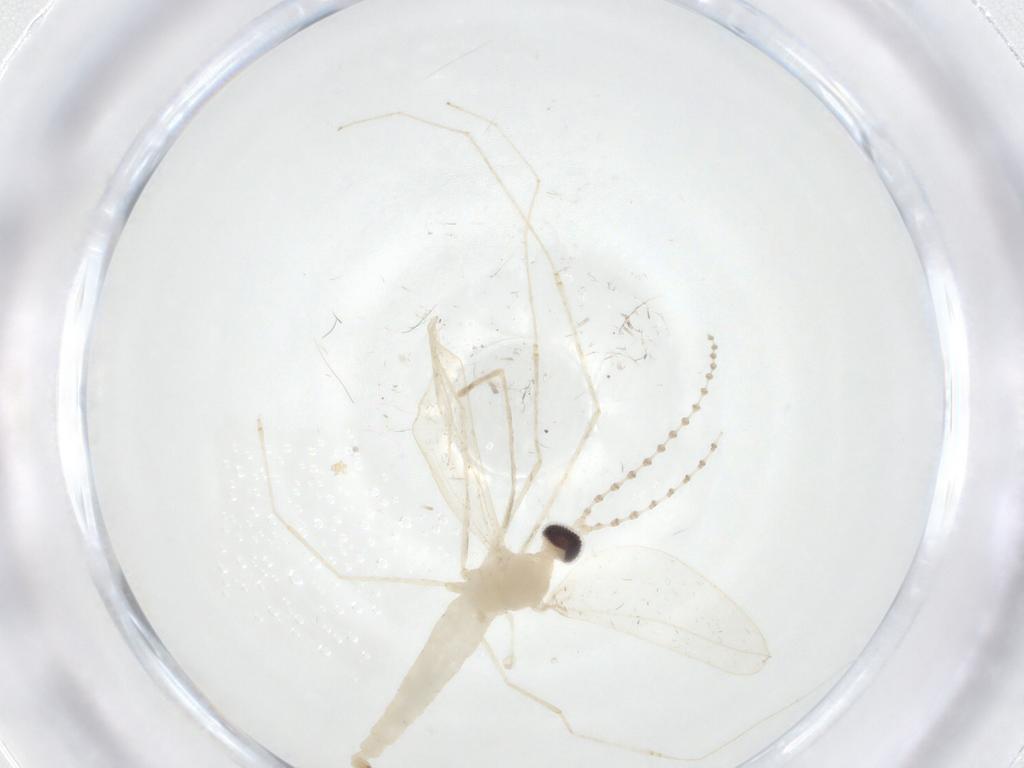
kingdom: Animalia
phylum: Arthropoda
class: Insecta
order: Diptera
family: Cecidomyiidae
